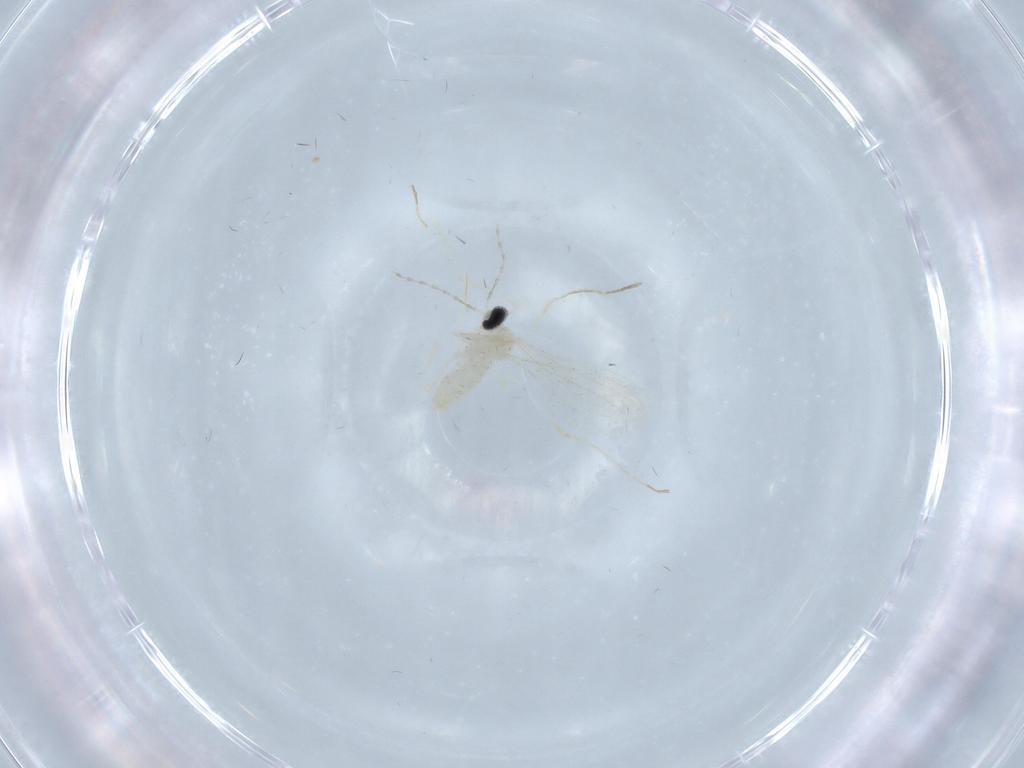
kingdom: Animalia
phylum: Arthropoda
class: Insecta
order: Diptera
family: Cecidomyiidae
